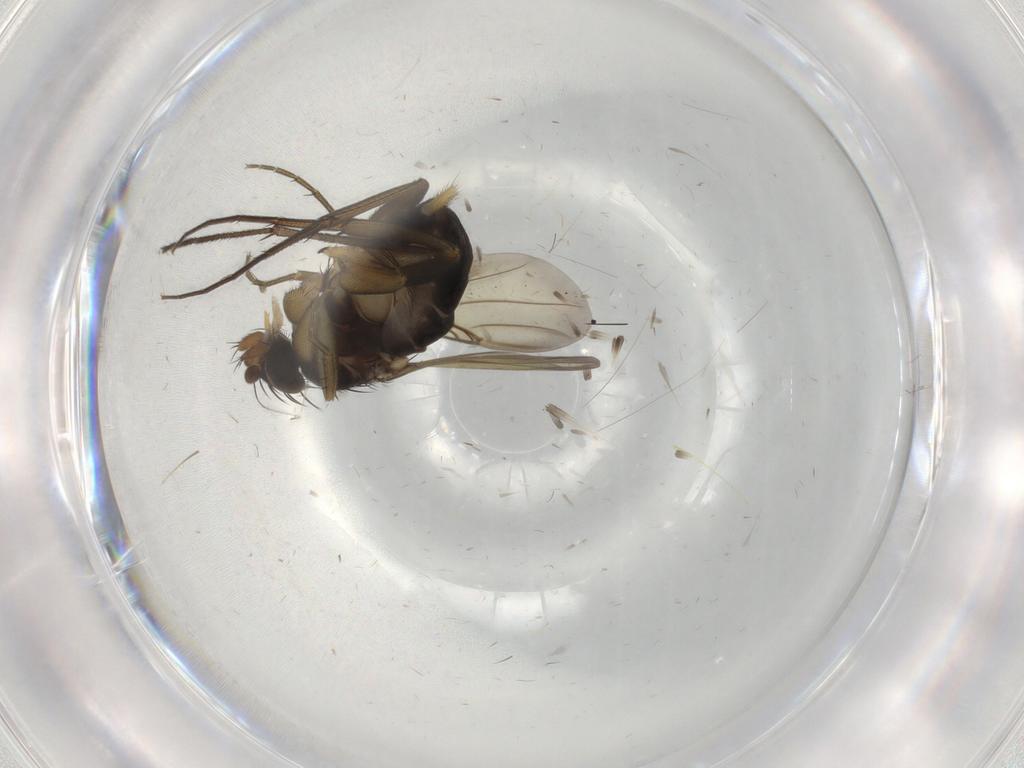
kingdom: Animalia
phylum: Arthropoda
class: Insecta
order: Diptera
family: Phoridae
